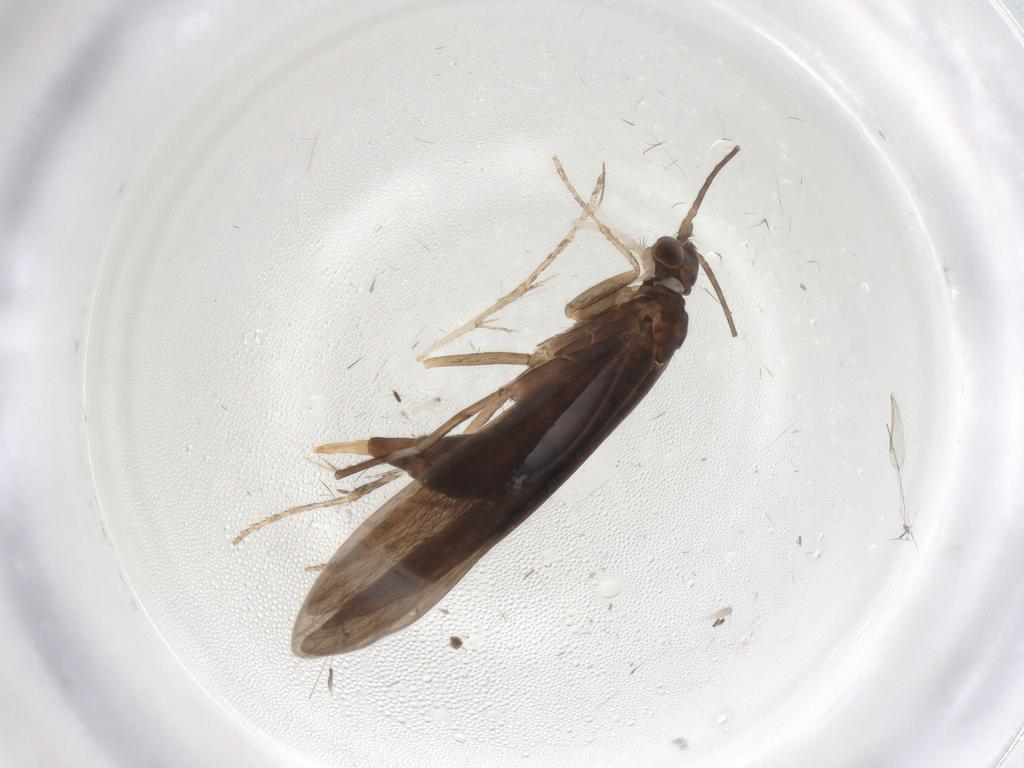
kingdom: Animalia
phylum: Arthropoda
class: Insecta
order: Trichoptera
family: Xiphocentronidae
